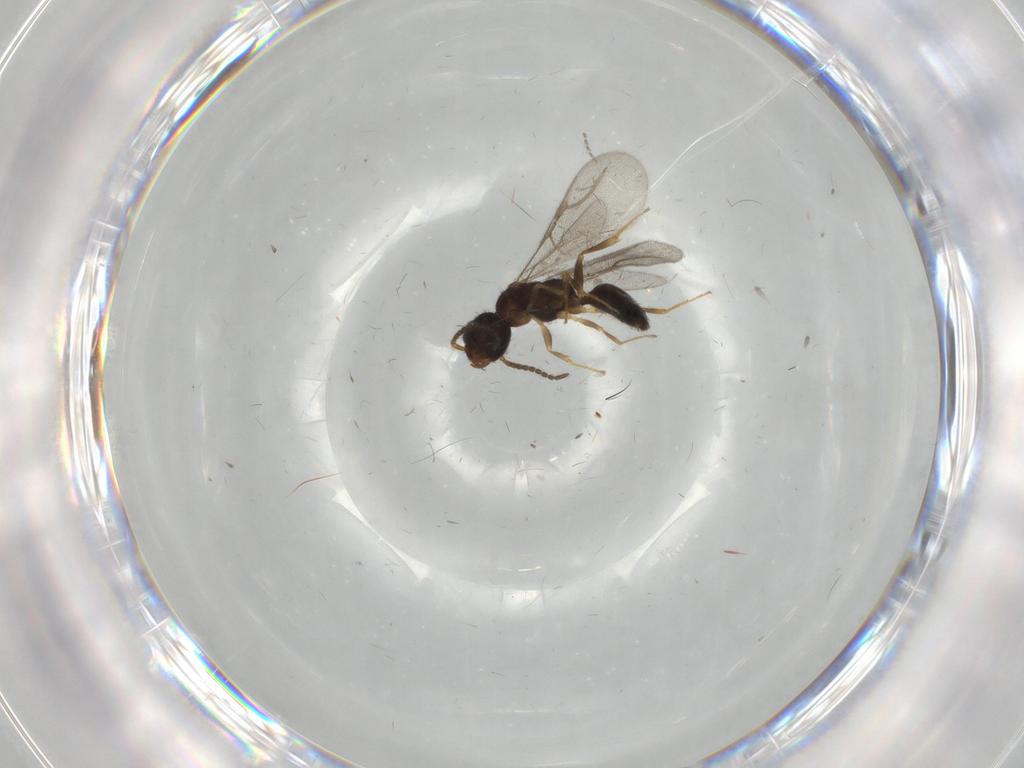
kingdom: Animalia
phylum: Arthropoda
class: Insecta
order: Hymenoptera
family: Bethylidae
